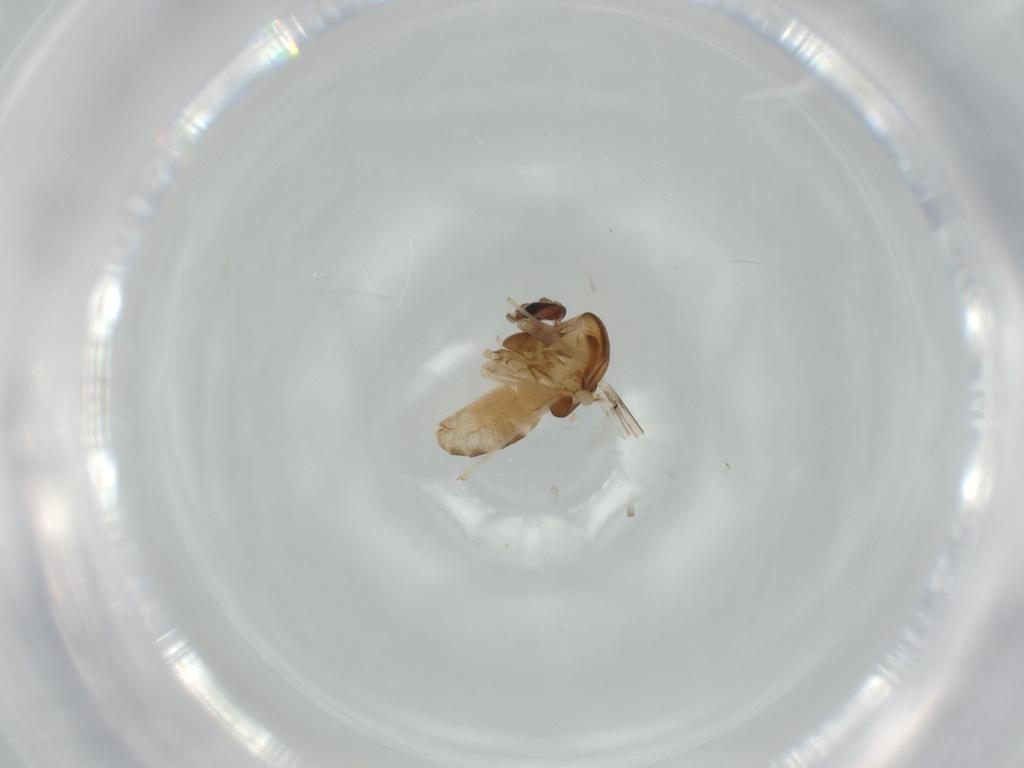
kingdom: Animalia
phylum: Arthropoda
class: Insecta
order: Diptera
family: Chironomidae
